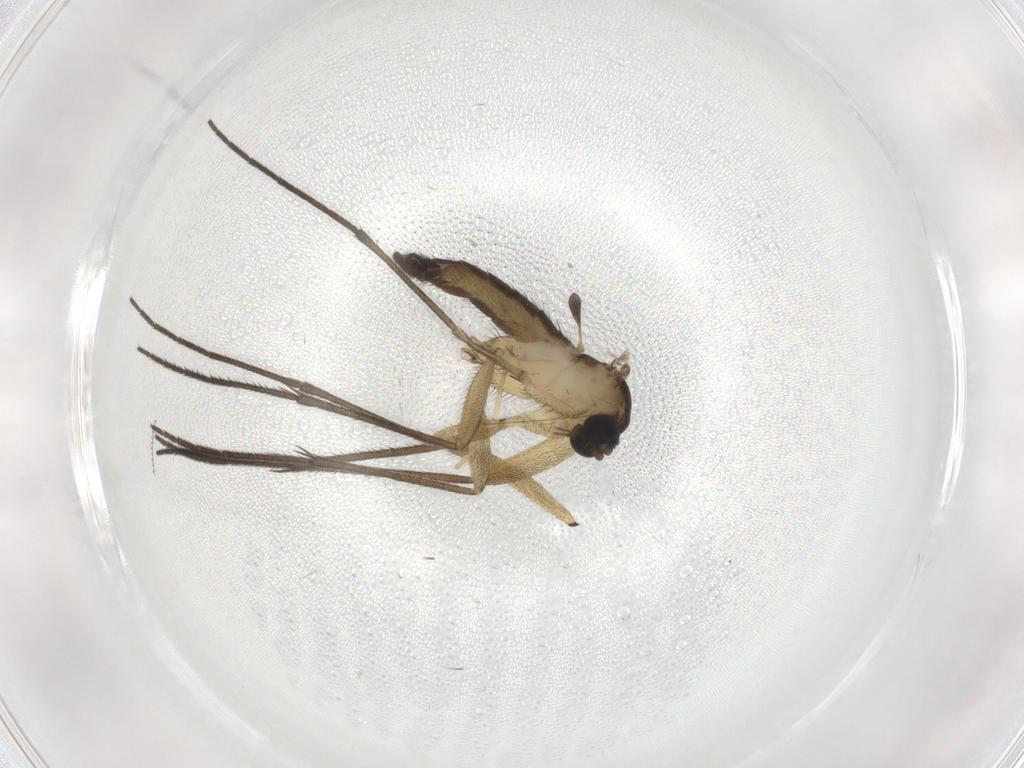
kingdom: Animalia
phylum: Arthropoda
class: Insecta
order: Diptera
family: Sciaridae
